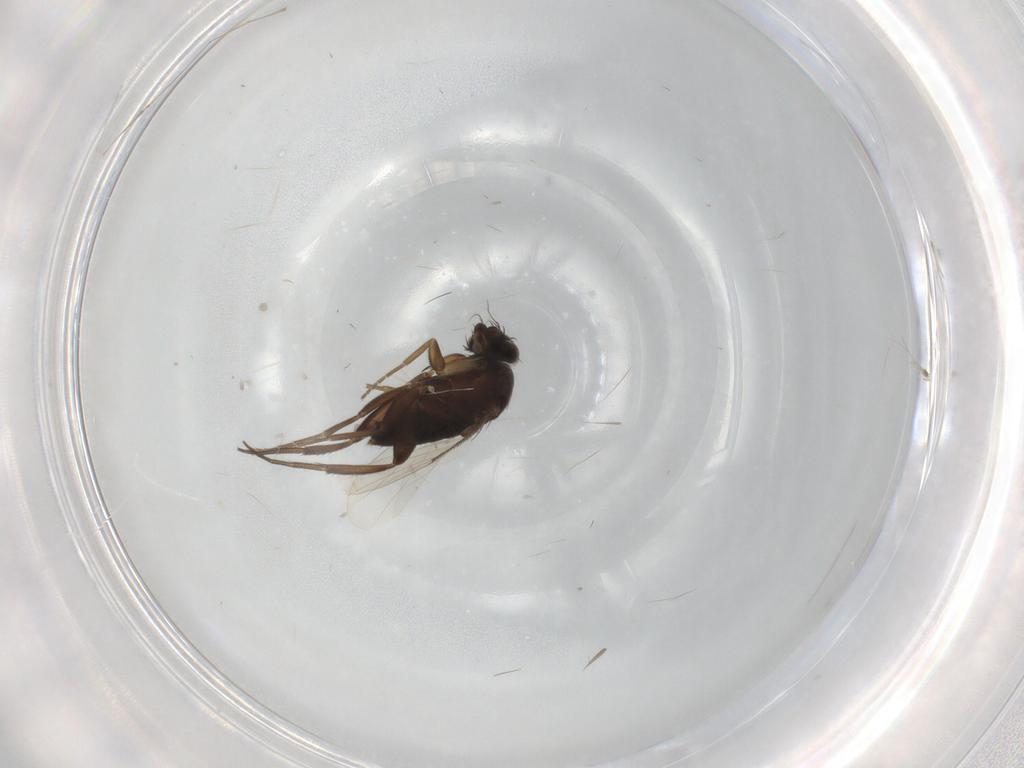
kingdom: Animalia
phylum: Arthropoda
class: Insecta
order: Diptera
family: Phoridae
